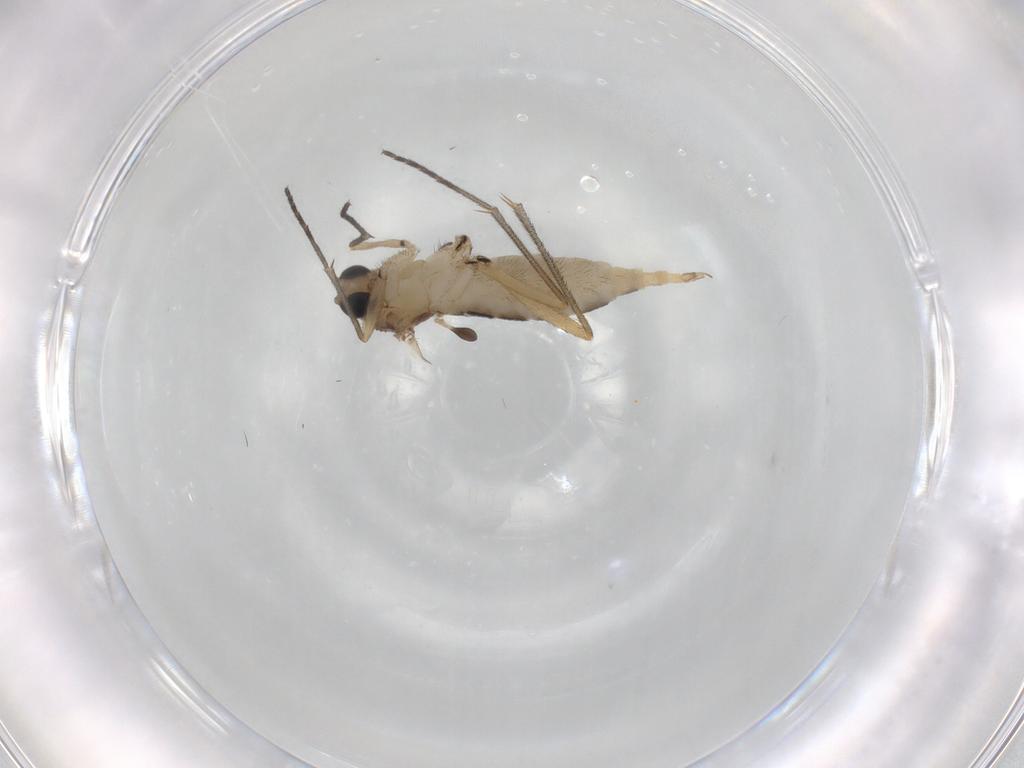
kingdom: Animalia
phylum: Arthropoda
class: Insecta
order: Diptera
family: Sciaridae
